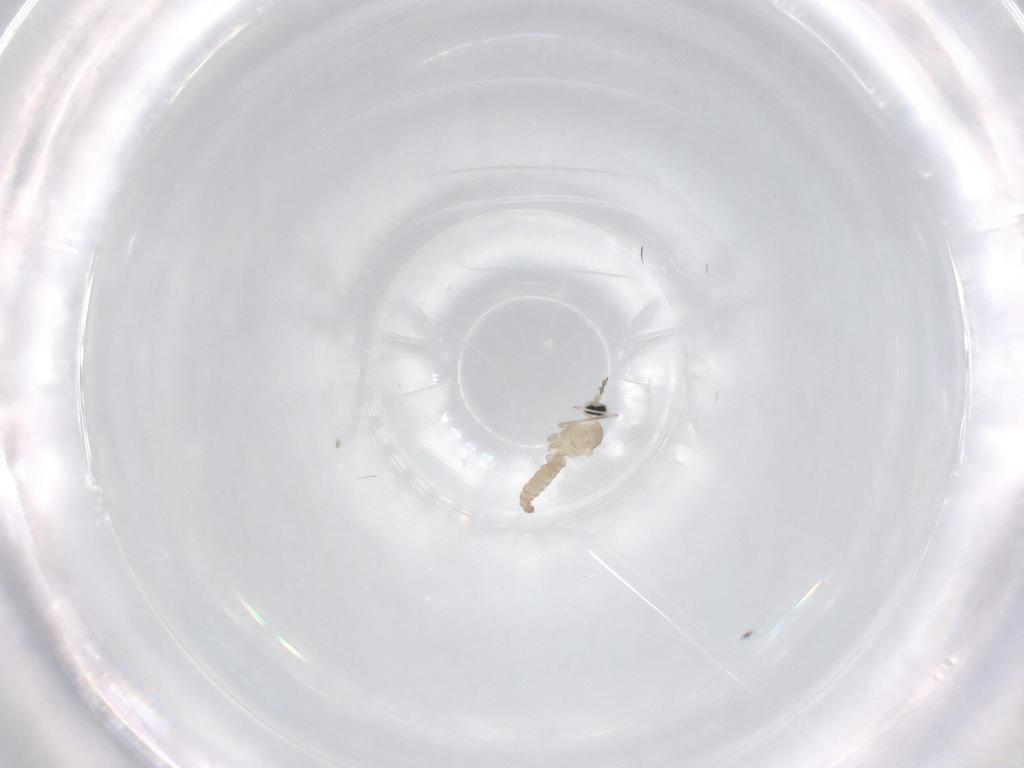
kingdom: Animalia
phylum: Arthropoda
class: Insecta
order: Diptera
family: Cecidomyiidae
